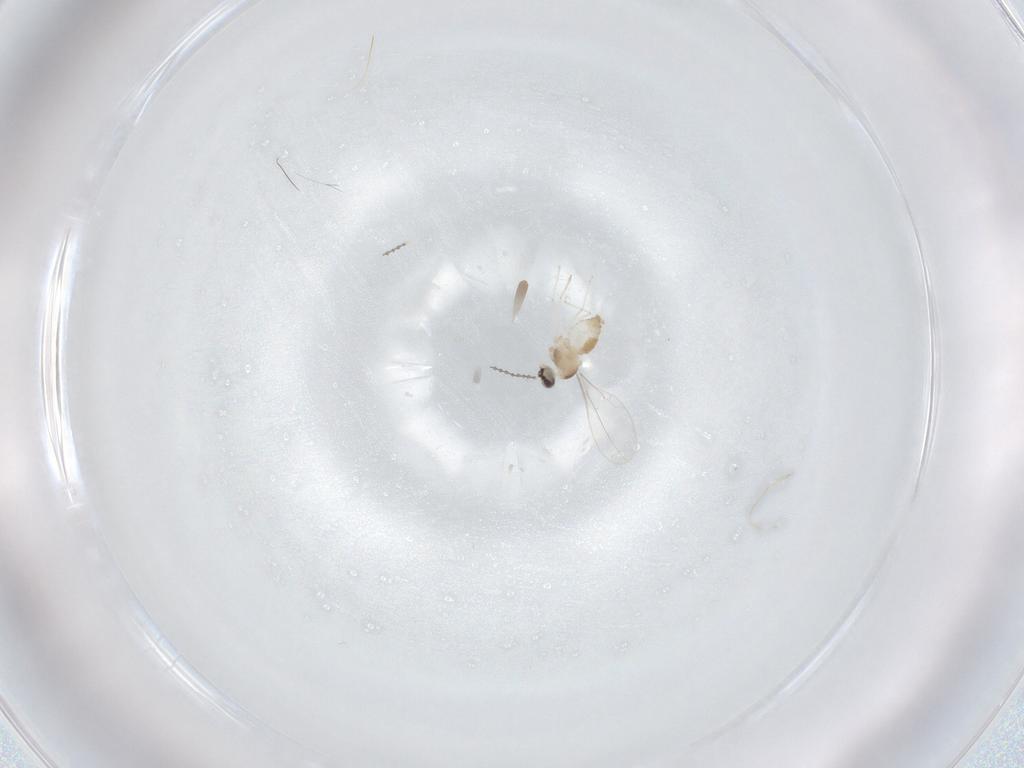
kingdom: Animalia
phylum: Arthropoda
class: Insecta
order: Diptera
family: Cecidomyiidae
